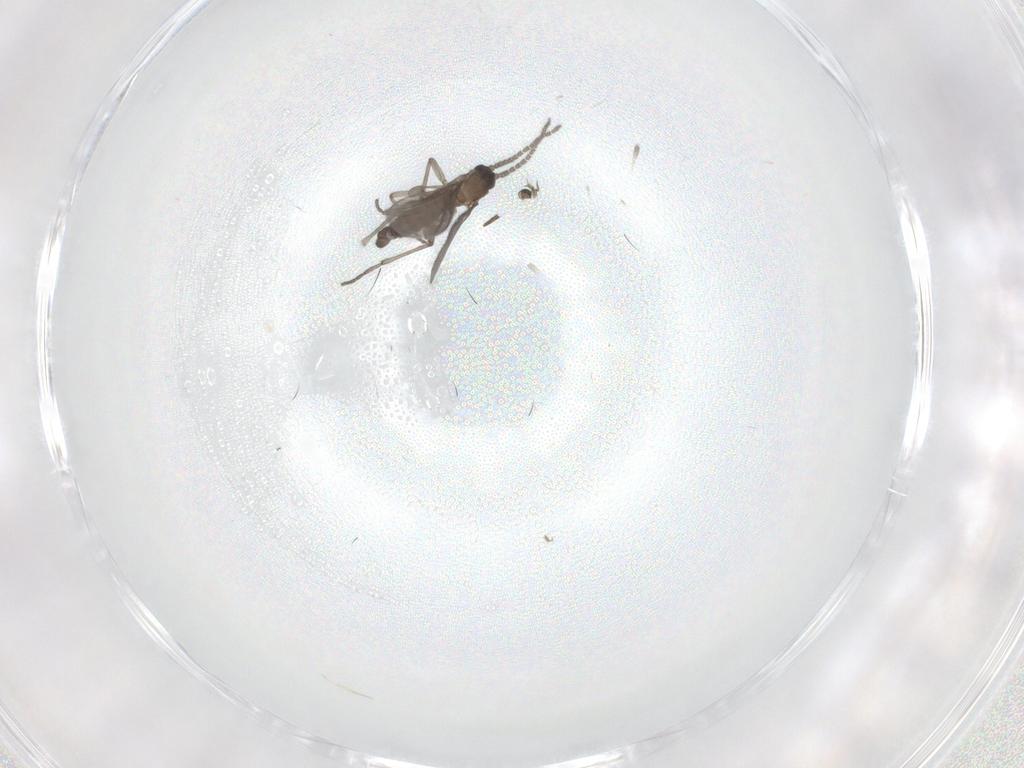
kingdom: Animalia
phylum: Arthropoda
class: Insecta
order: Diptera
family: Sciaridae
